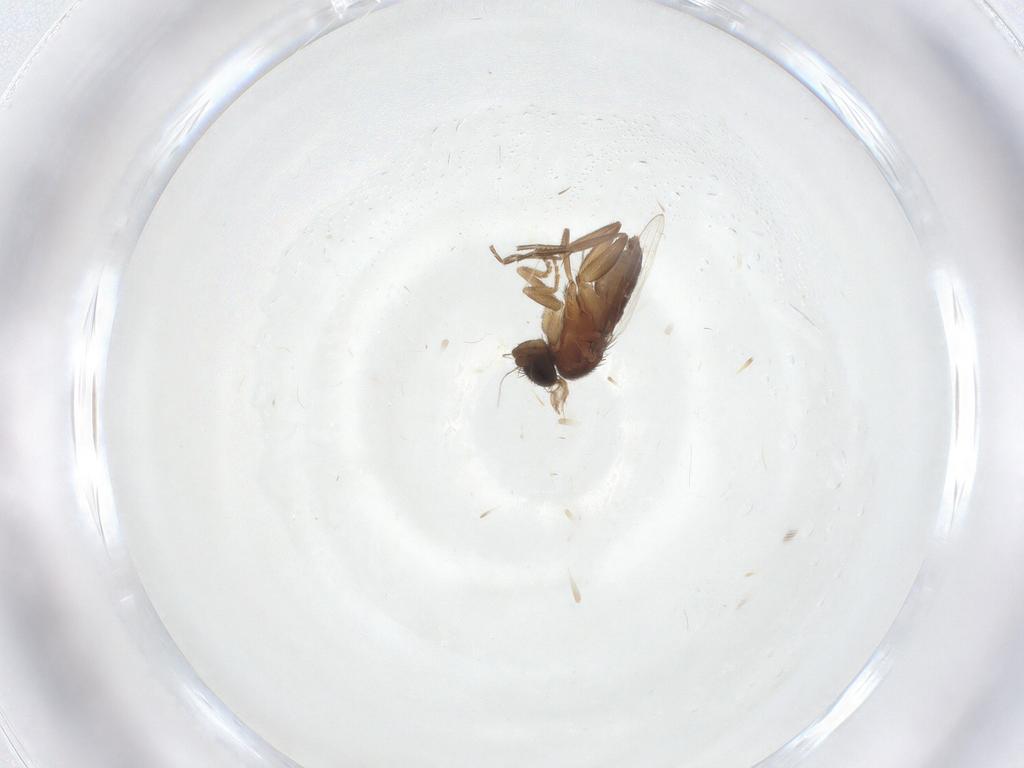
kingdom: Animalia
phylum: Arthropoda
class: Insecta
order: Diptera
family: Phoridae
